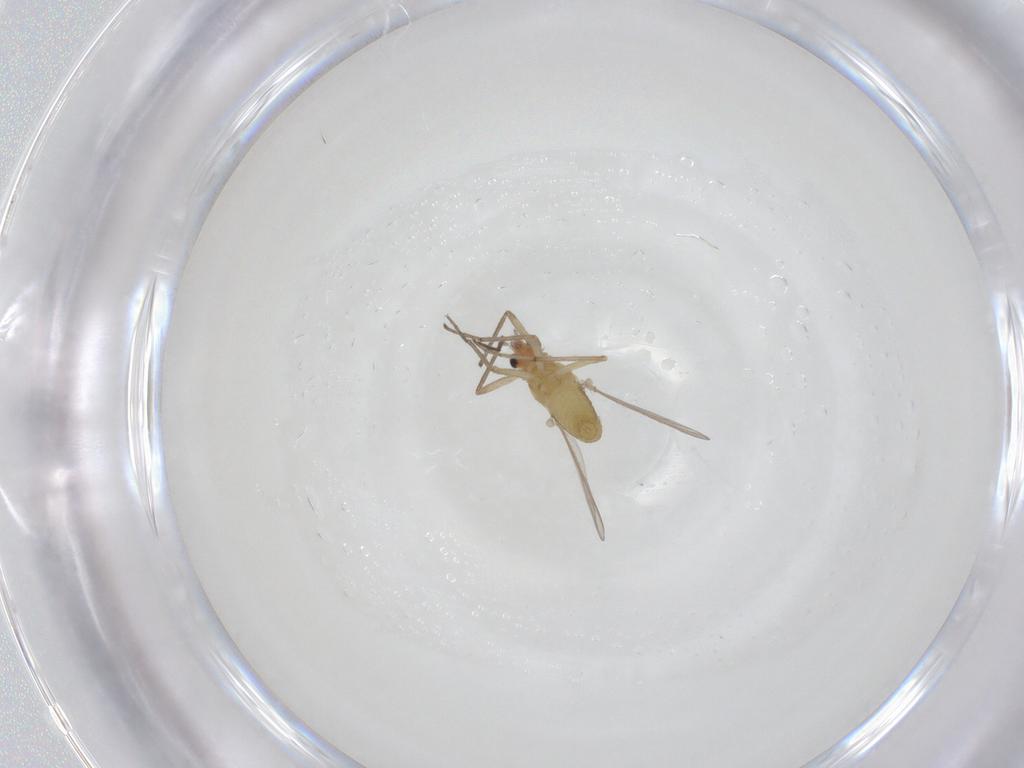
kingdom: Animalia
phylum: Arthropoda
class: Insecta
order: Diptera
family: Chironomidae
